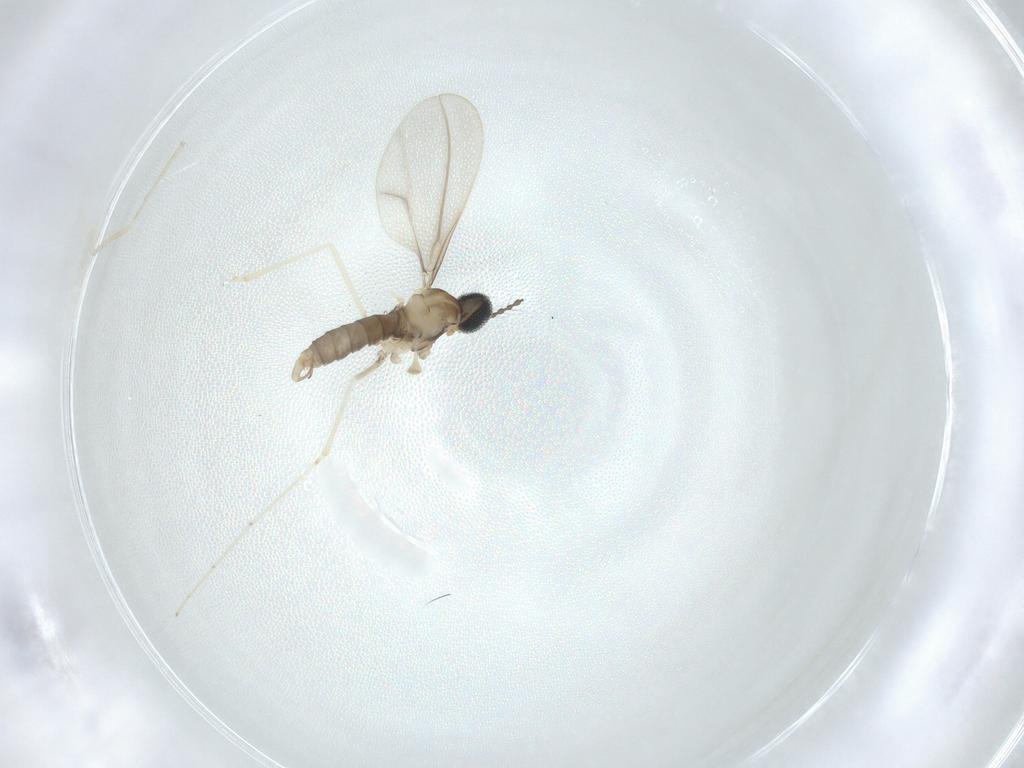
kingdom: Animalia
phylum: Arthropoda
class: Insecta
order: Diptera
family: Cecidomyiidae
